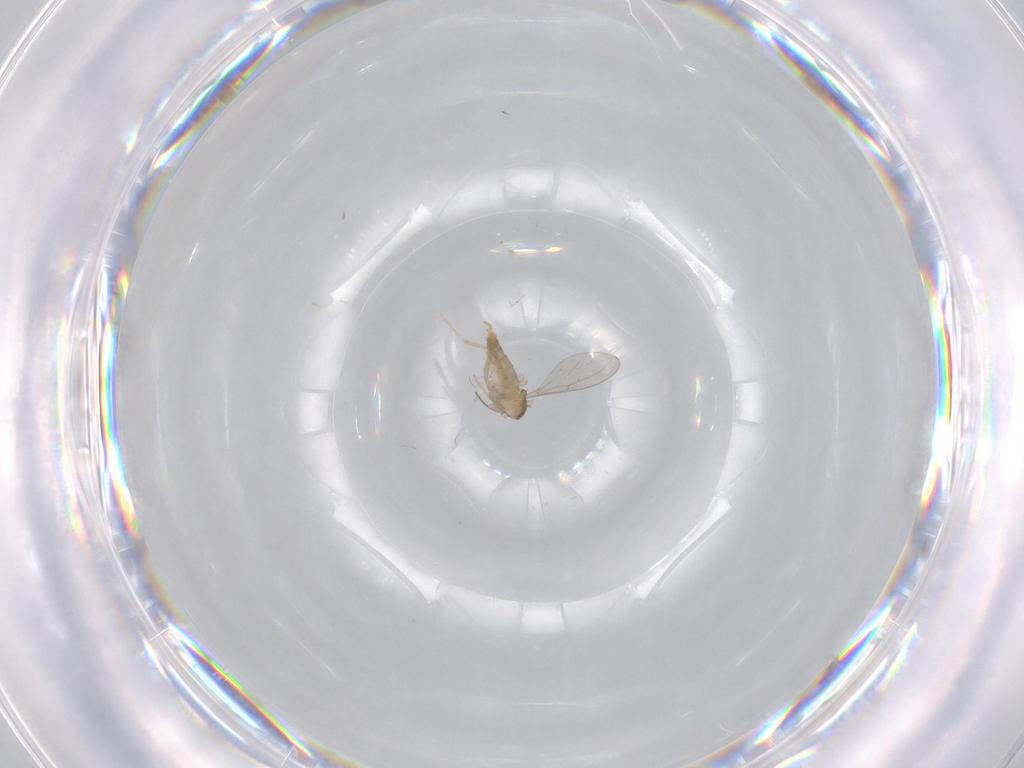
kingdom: Animalia
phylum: Arthropoda
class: Insecta
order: Diptera
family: Cecidomyiidae
